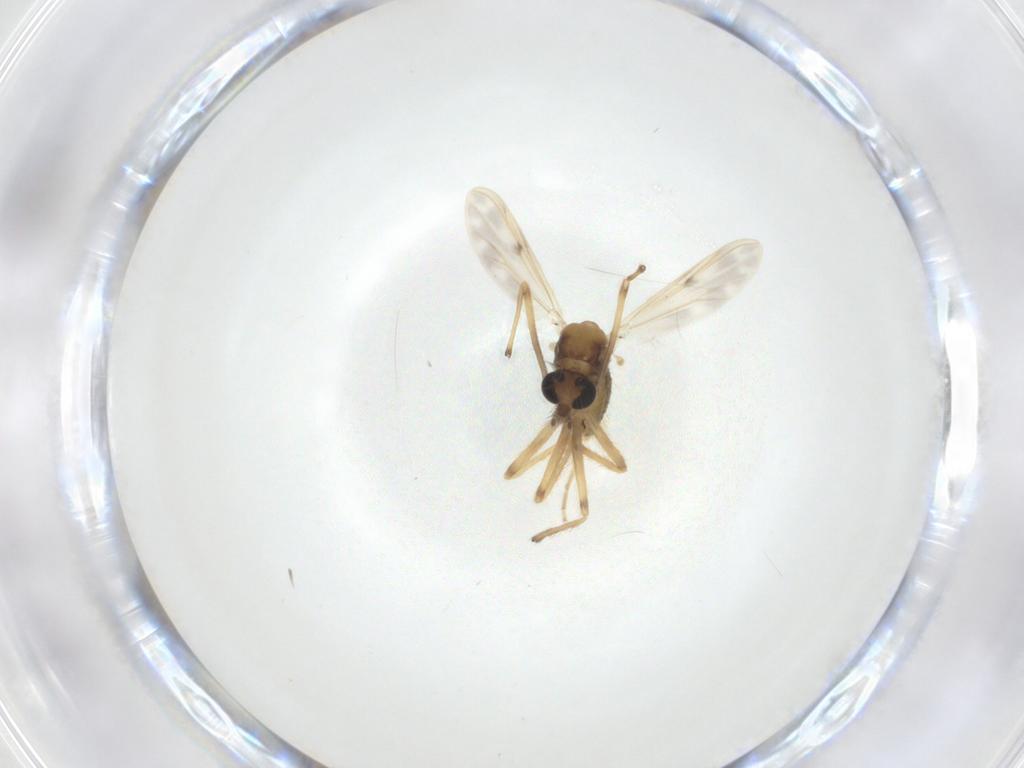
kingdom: Animalia
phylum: Arthropoda
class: Insecta
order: Diptera
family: Chironomidae
